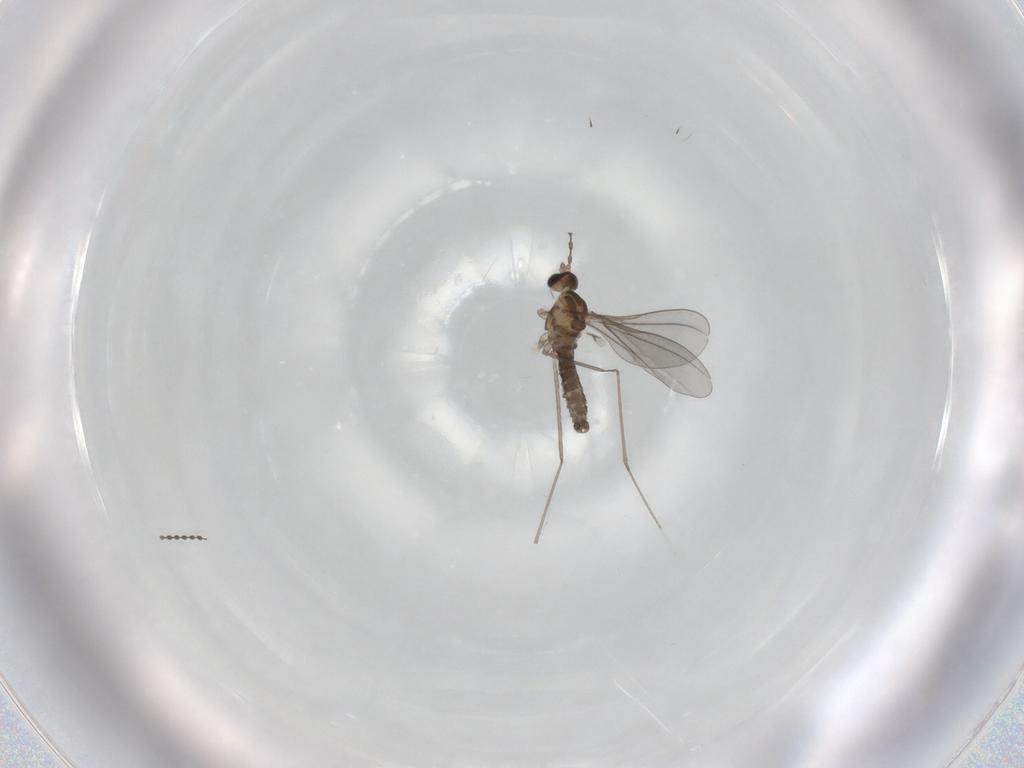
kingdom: Animalia
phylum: Arthropoda
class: Insecta
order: Diptera
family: Cecidomyiidae
